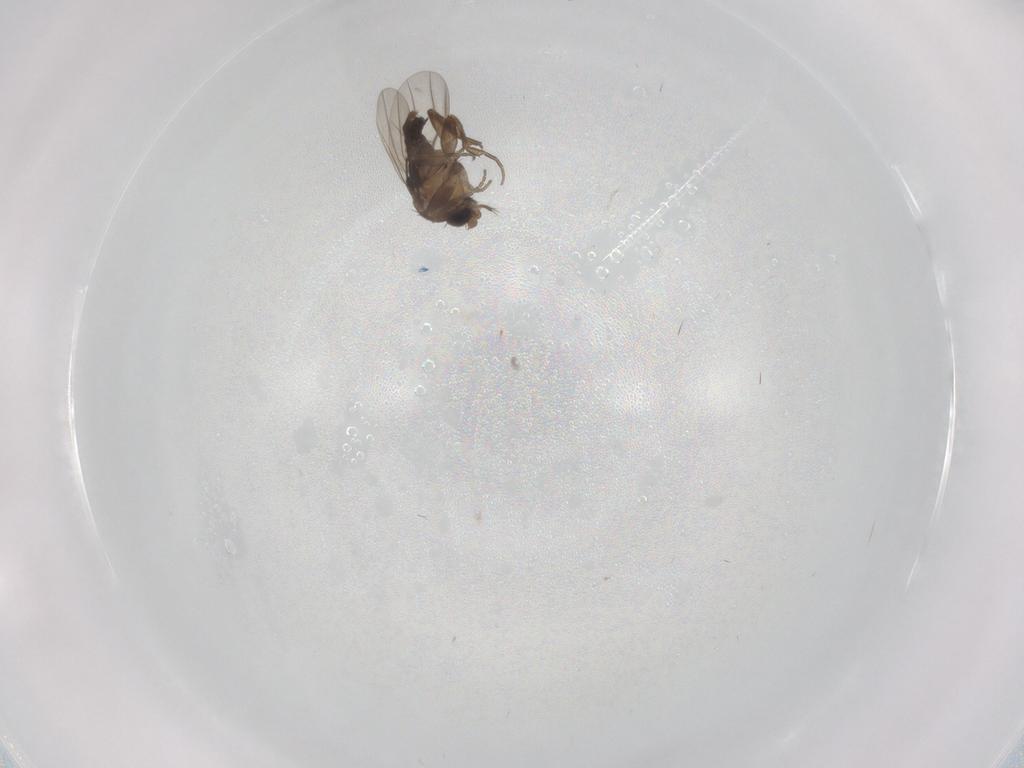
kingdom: Animalia
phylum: Arthropoda
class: Insecta
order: Diptera
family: Phoridae
